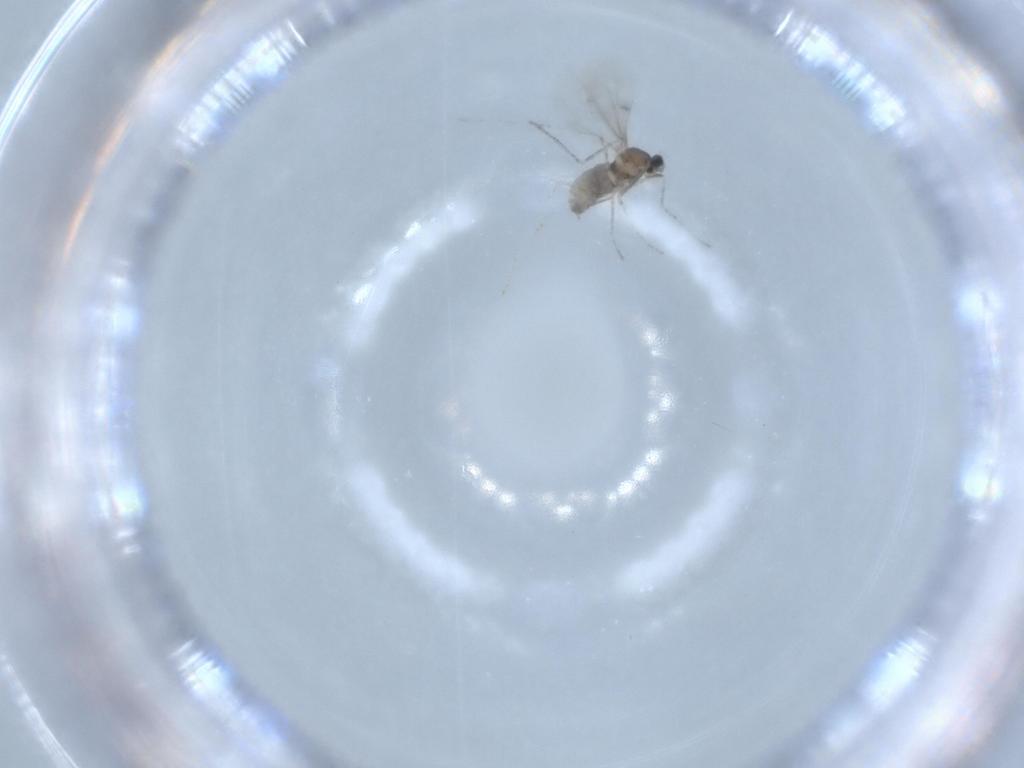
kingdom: Animalia
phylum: Arthropoda
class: Insecta
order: Diptera
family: Cecidomyiidae
